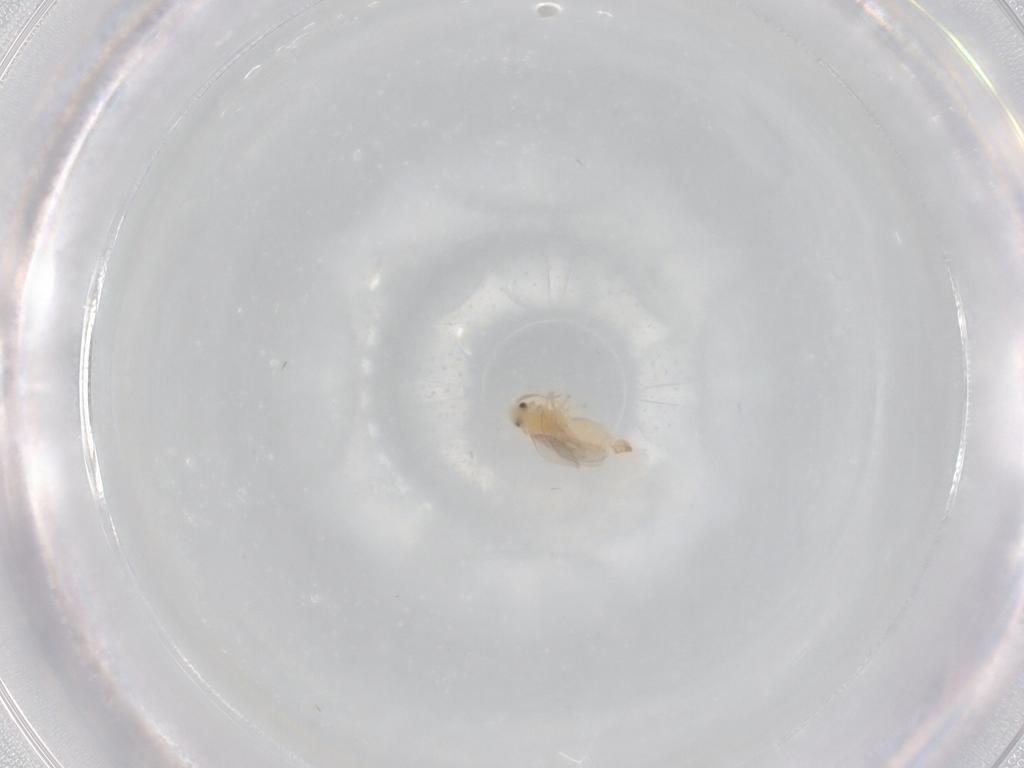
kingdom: Animalia
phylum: Arthropoda
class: Insecta
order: Hemiptera
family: Aleyrodidae
